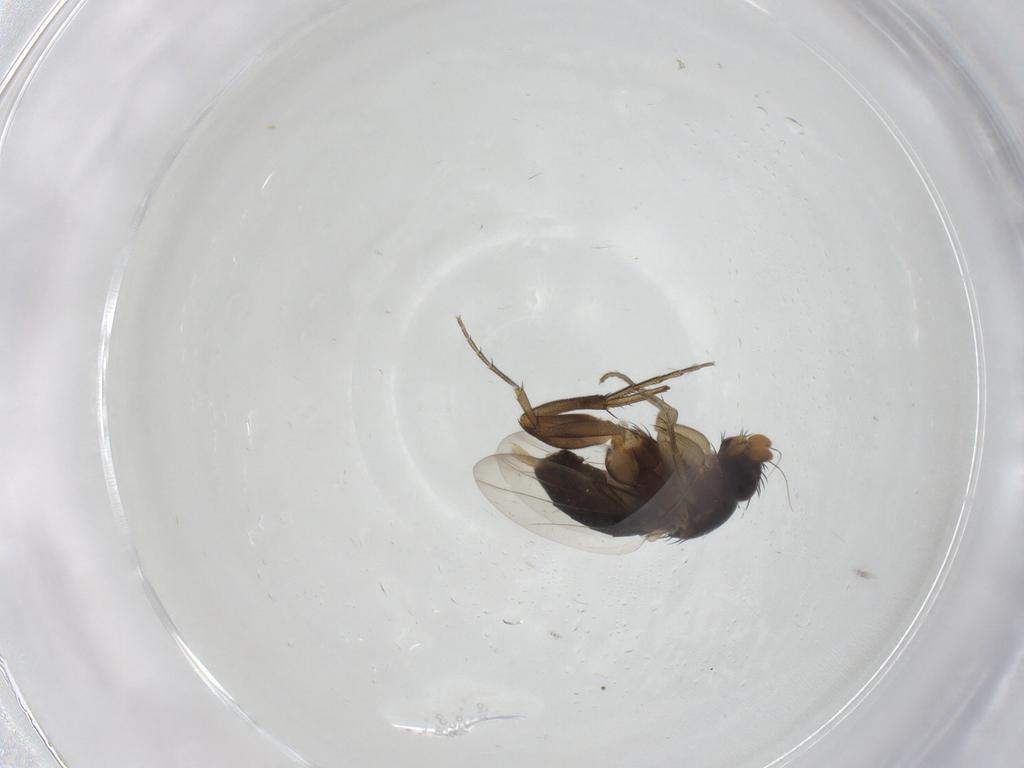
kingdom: Animalia
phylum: Arthropoda
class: Insecta
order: Diptera
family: Phoridae
